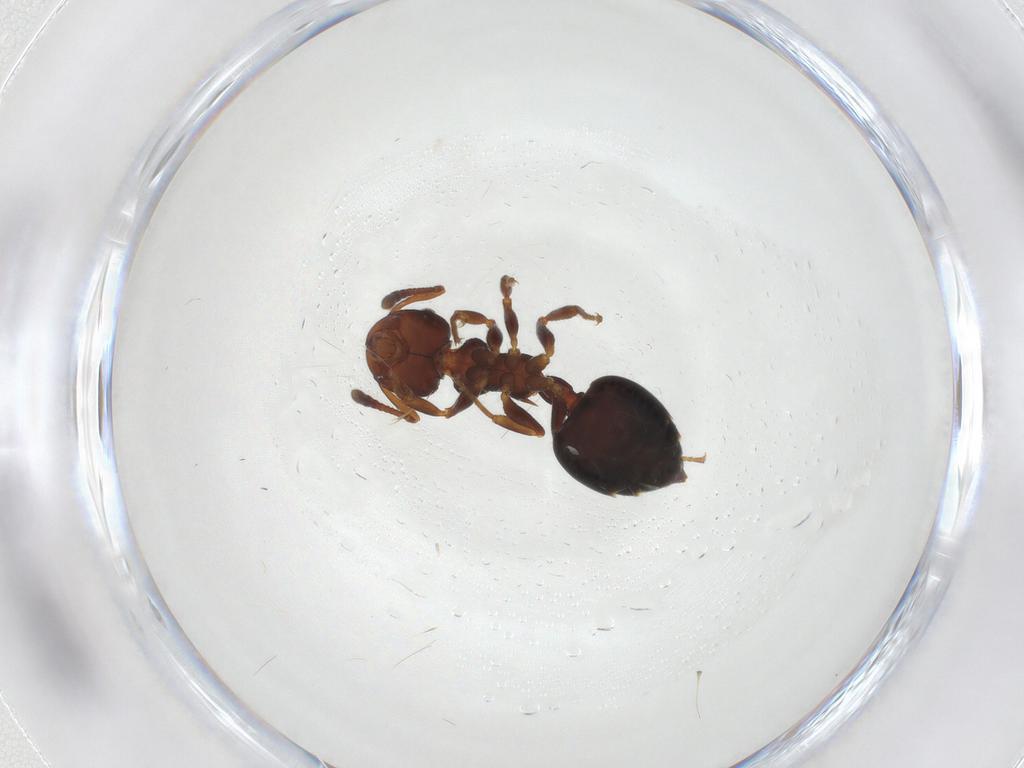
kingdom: Animalia
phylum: Arthropoda
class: Insecta
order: Hymenoptera
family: Formicidae
